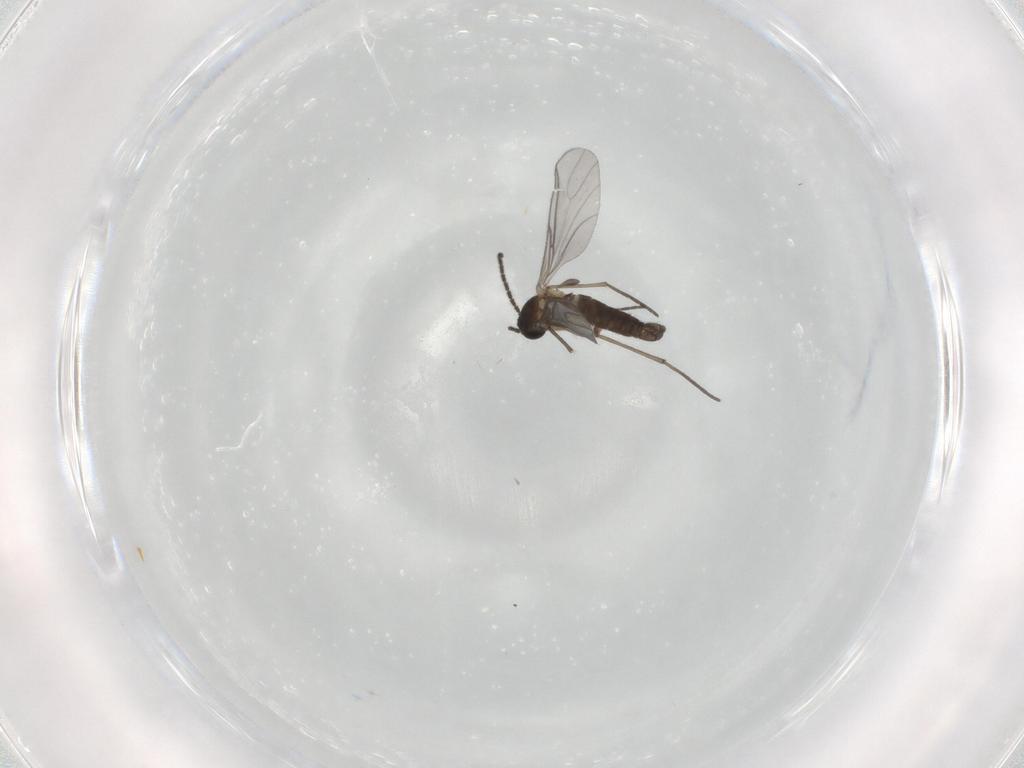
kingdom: Animalia
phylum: Arthropoda
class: Insecta
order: Diptera
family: Sciaridae
